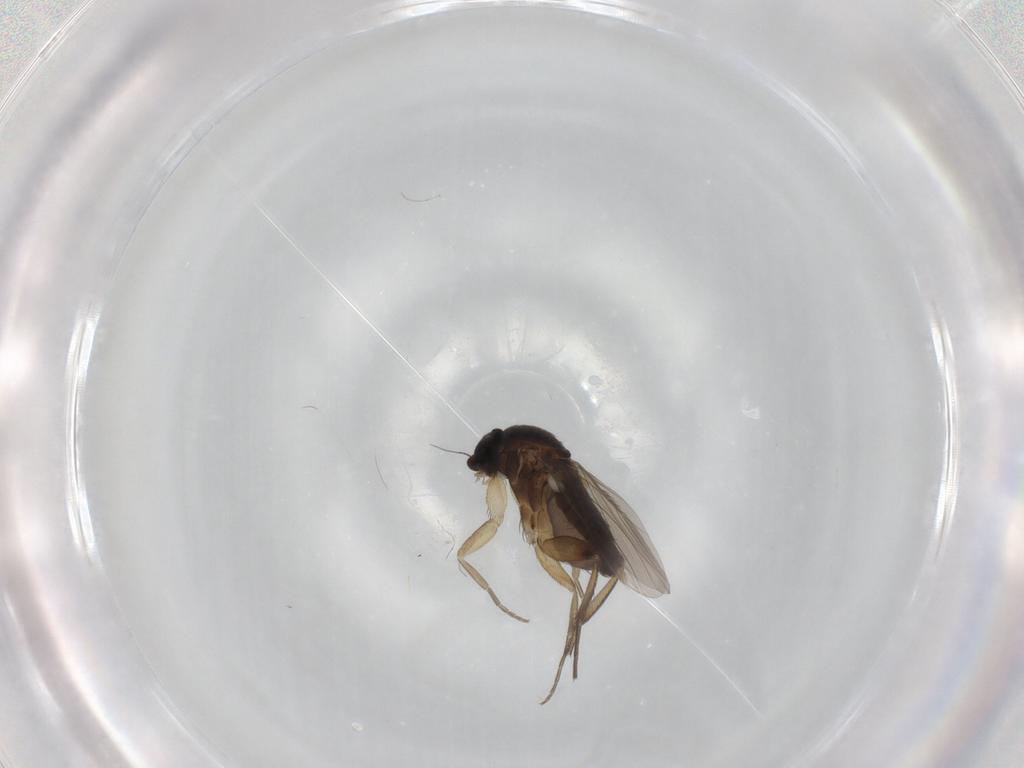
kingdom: Animalia
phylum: Arthropoda
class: Insecta
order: Diptera
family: Phoridae
